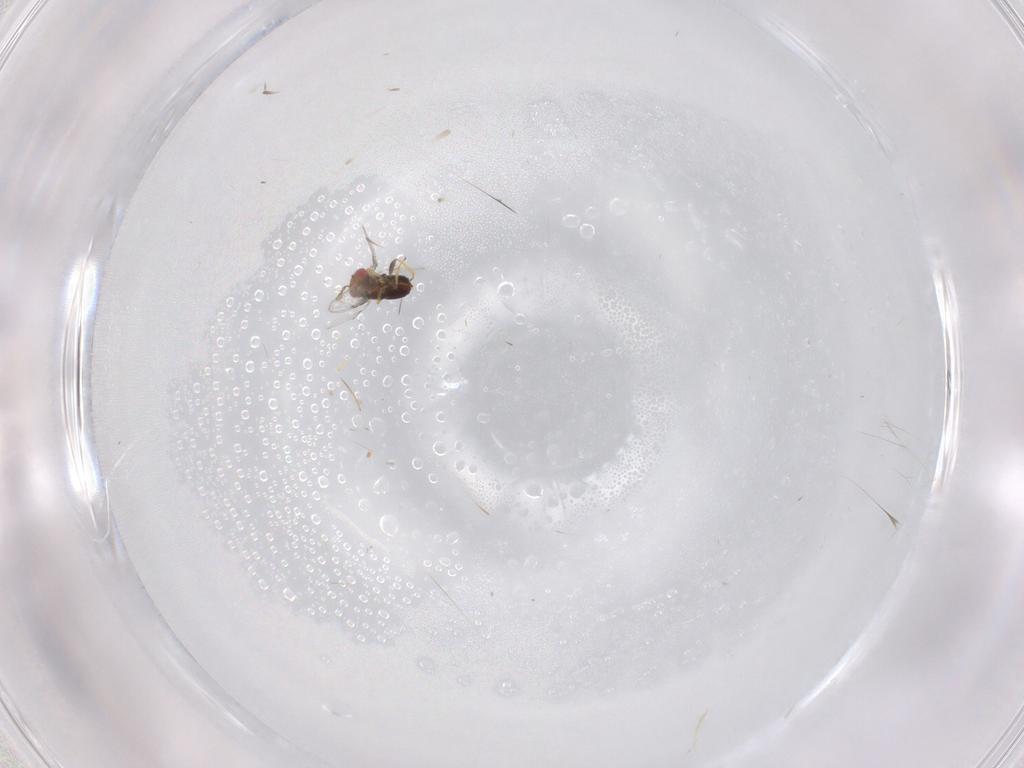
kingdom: Animalia
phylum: Arthropoda
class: Insecta
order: Hymenoptera
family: Trichogrammatidae
